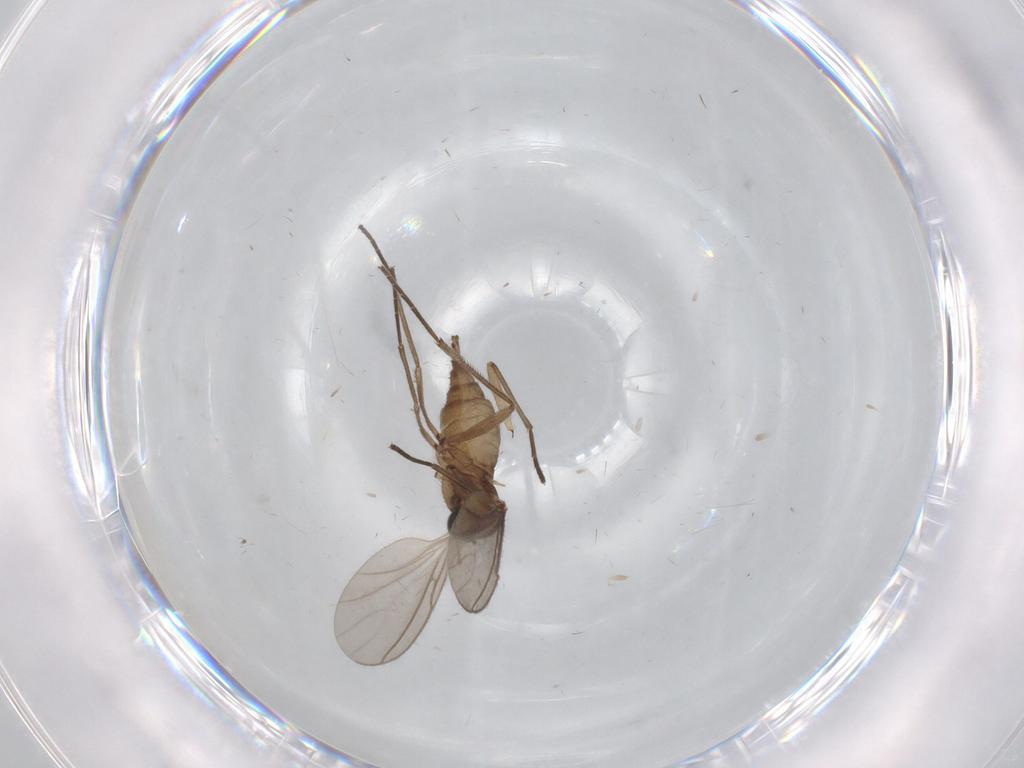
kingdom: Animalia
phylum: Arthropoda
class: Insecta
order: Diptera
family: Sciaridae
